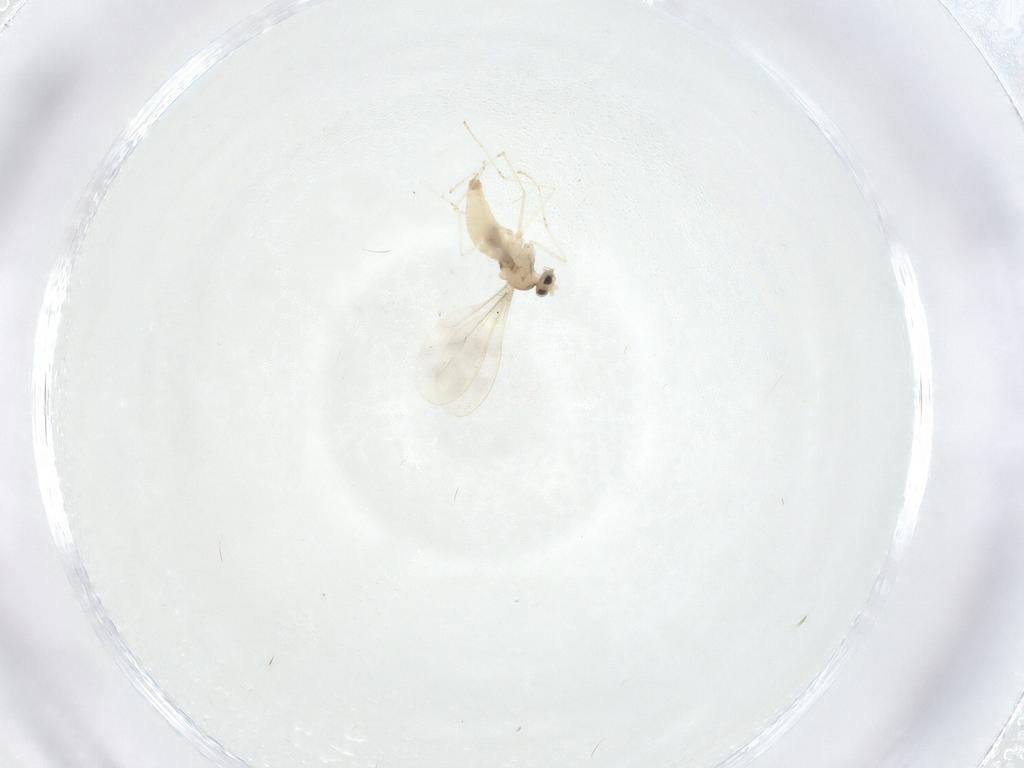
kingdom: Animalia
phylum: Arthropoda
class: Insecta
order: Diptera
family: Cecidomyiidae
